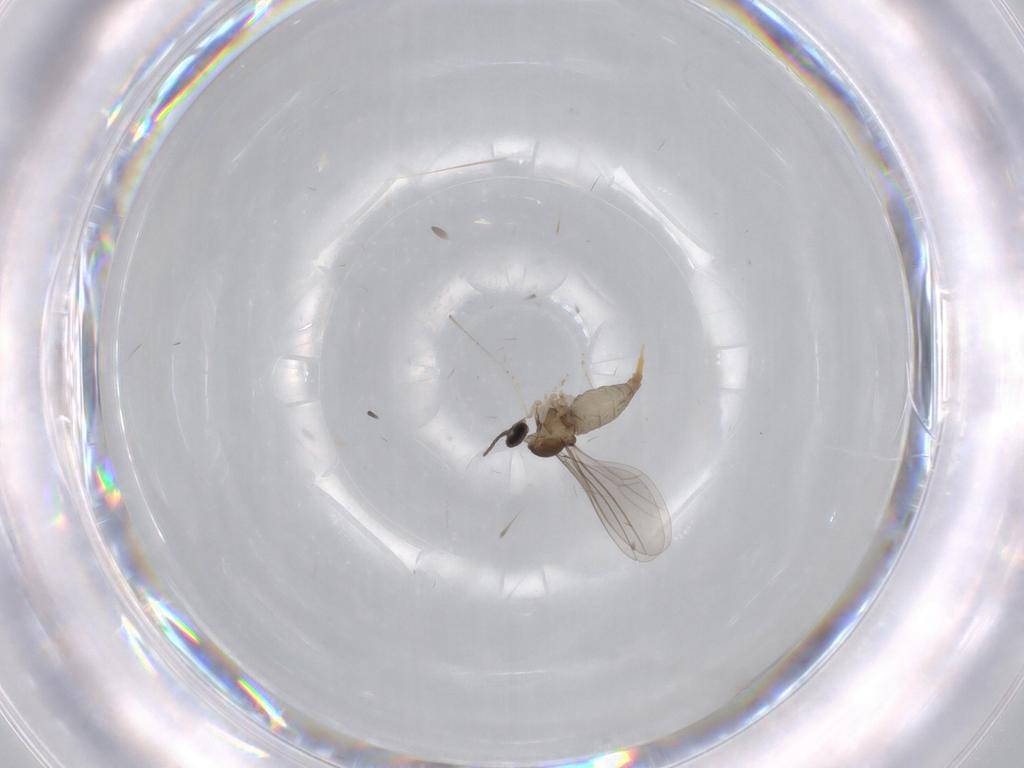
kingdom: Animalia
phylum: Arthropoda
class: Insecta
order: Diptera
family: Cecidomyiidae
